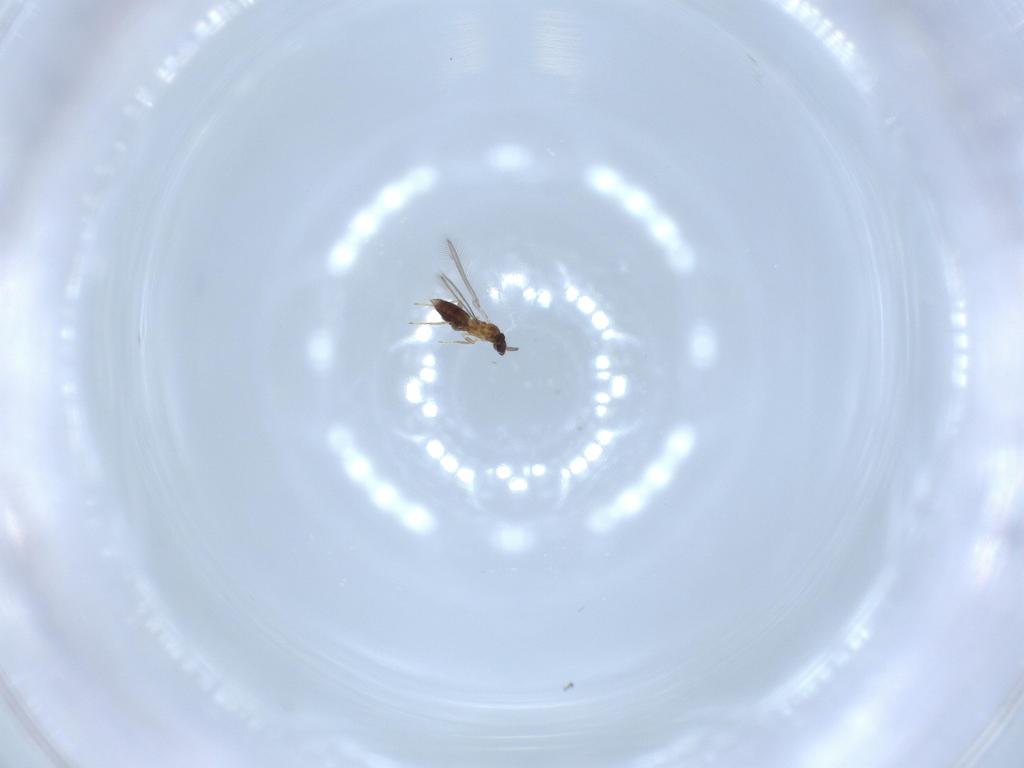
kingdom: Animalia
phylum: Arthropoda
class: Insecta
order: Hymenoptera
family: Formicidae
